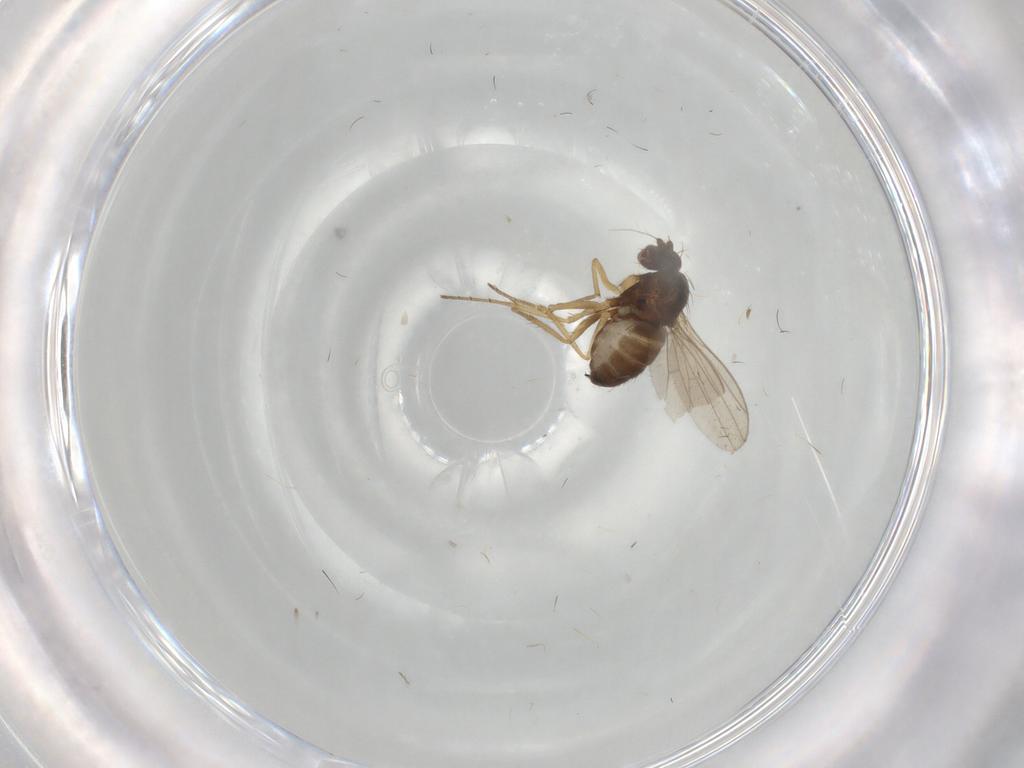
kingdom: Animalia
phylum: Arthropoda
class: Insecta
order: Diptera
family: Dolichopodidae
